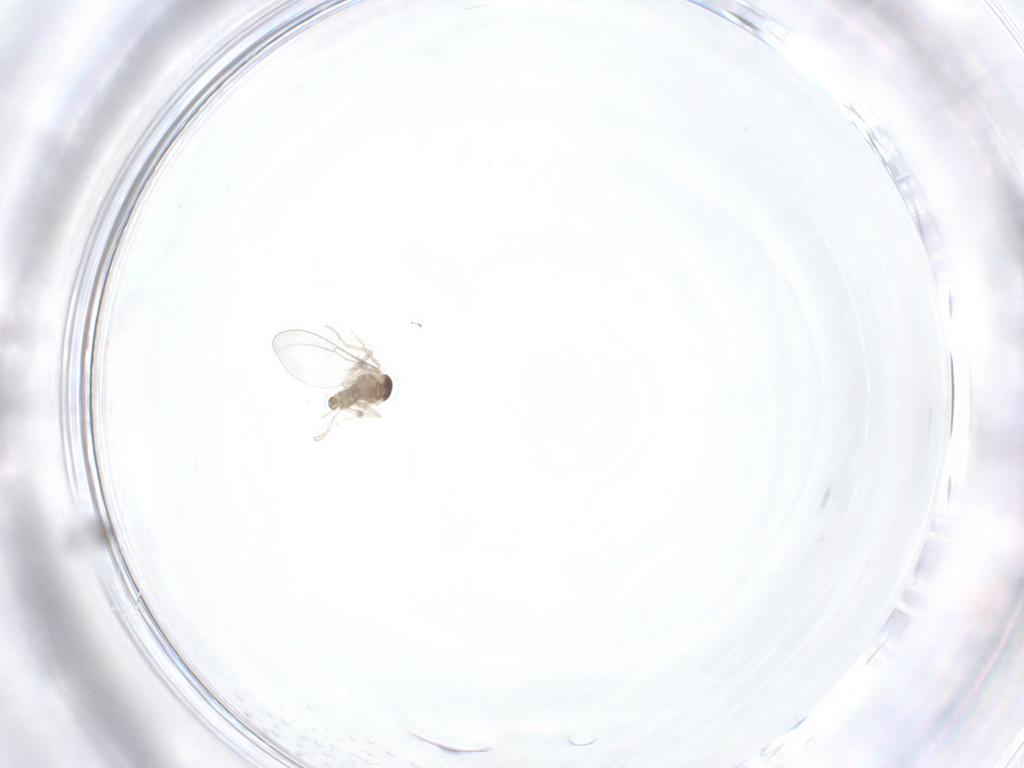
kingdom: Animalia
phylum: Arthropoda
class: Insecta
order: Diptera
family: Cecidomyiidae
